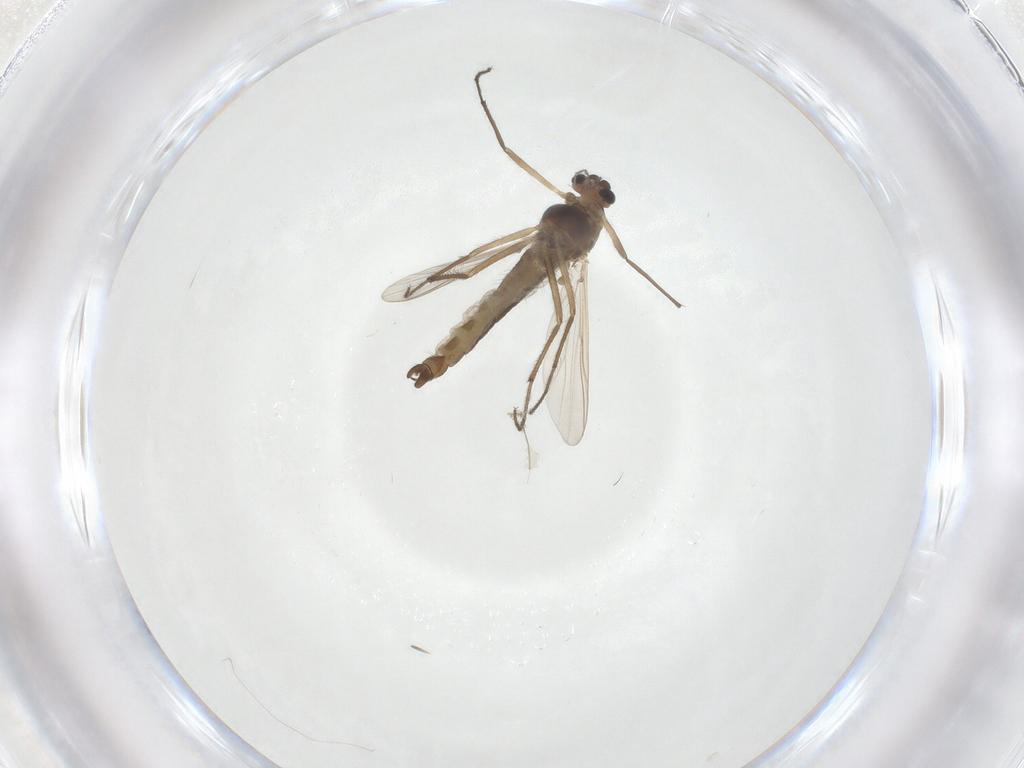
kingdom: Animalia
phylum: Arthropoda
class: Insecta
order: Diptera
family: Chironomidae
